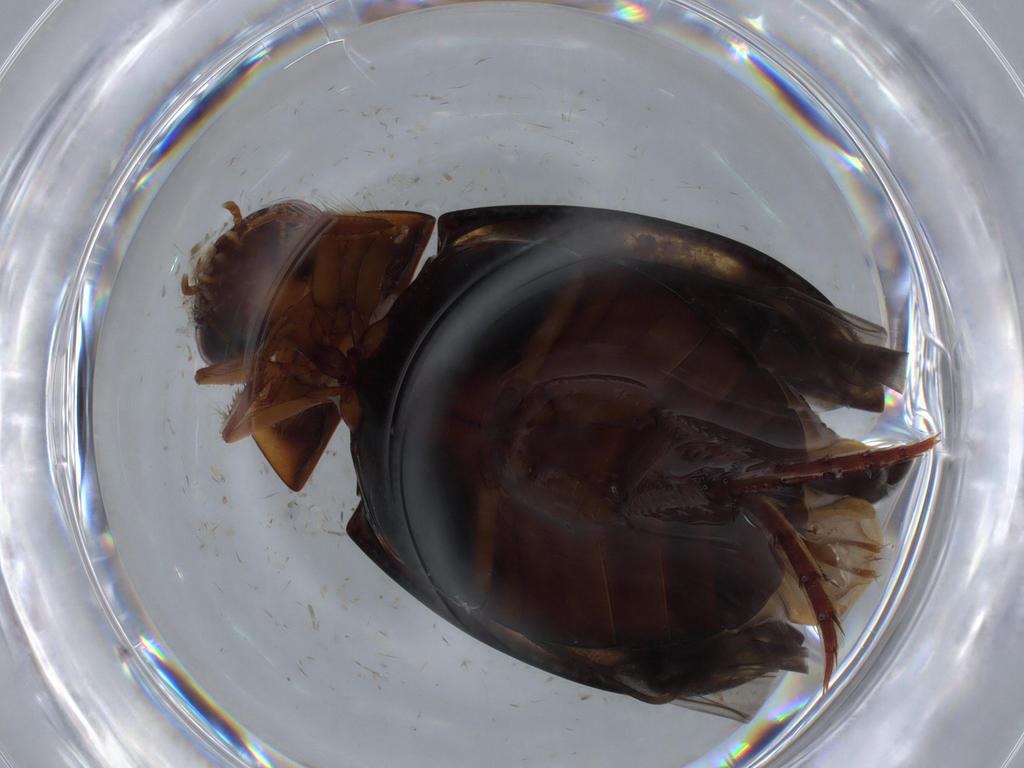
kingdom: Animalia
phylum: Arthropoda
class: Insecta
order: Coleoptera
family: Dytiscidae
